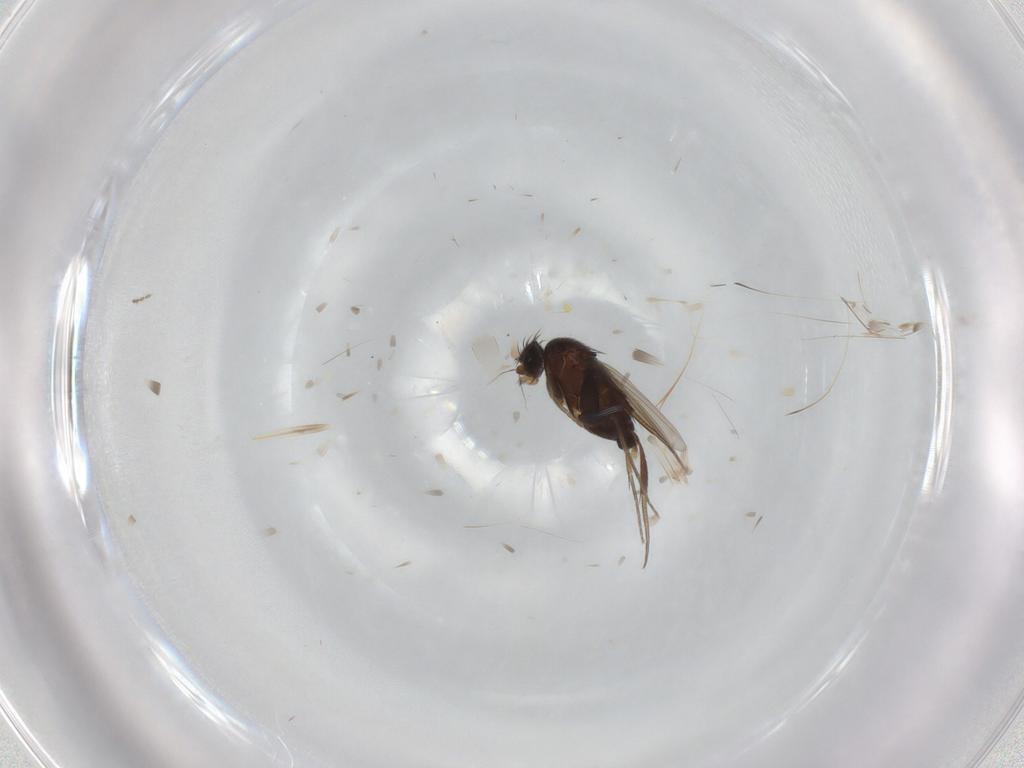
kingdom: Animalia
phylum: Arthropoda
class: Insecta
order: Diptera
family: Phoridae
